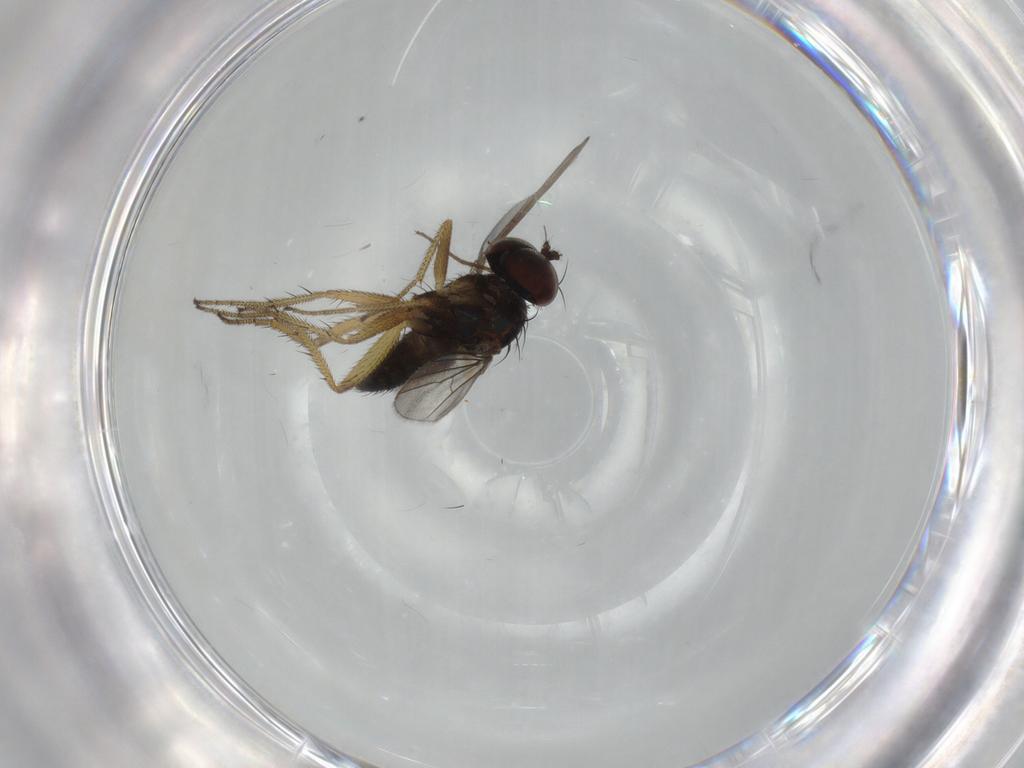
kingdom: Animalia
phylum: Arthropoda
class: Insecta
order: Diptera
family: Dolichopodidae
